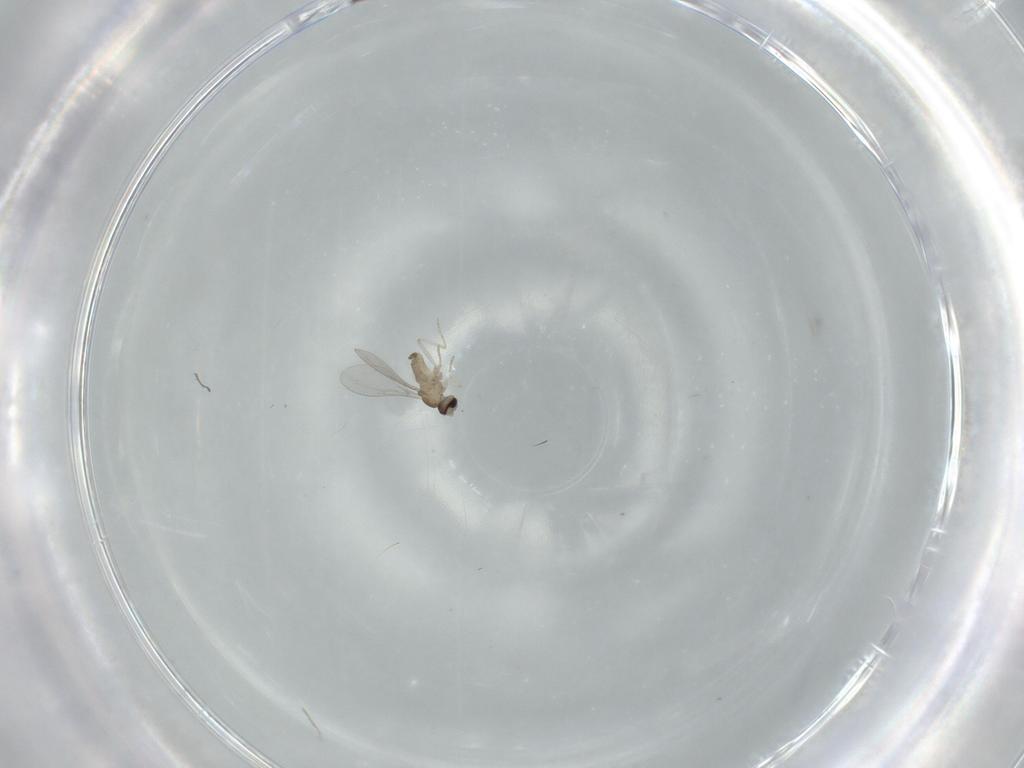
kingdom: Animalia
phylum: Arthropoda
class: Insecta
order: Diptera
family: Cecidomyiidae
